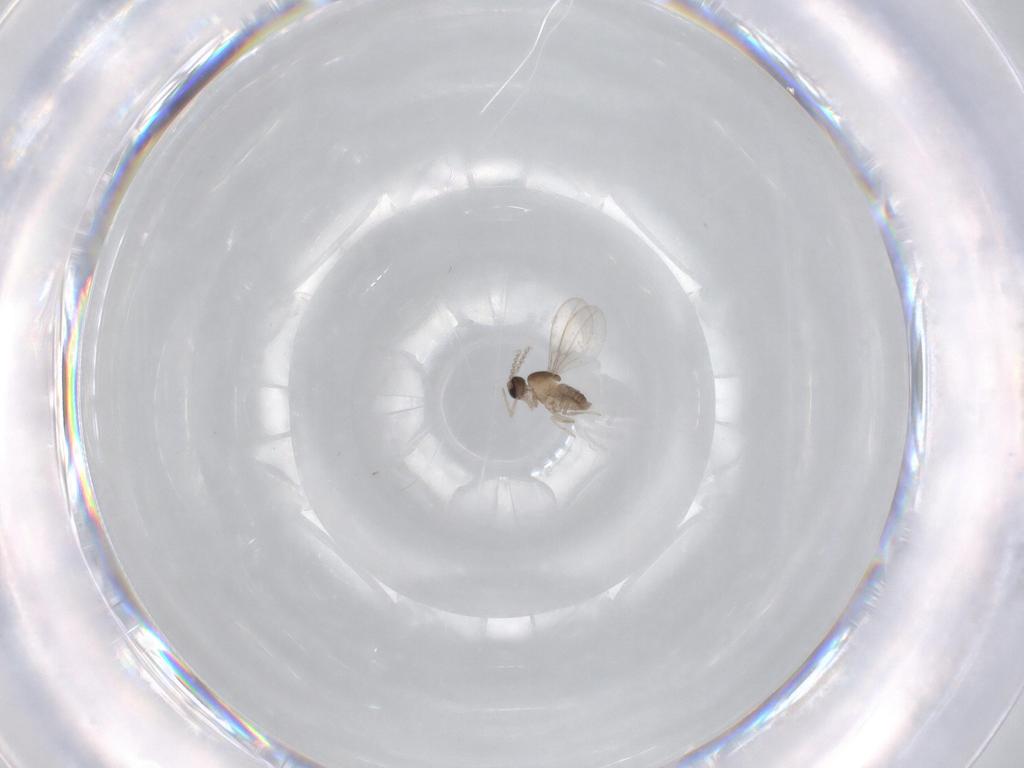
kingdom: Animalia
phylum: Arthropoda
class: Insecta
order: Diptera
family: Cecidomyiidae
